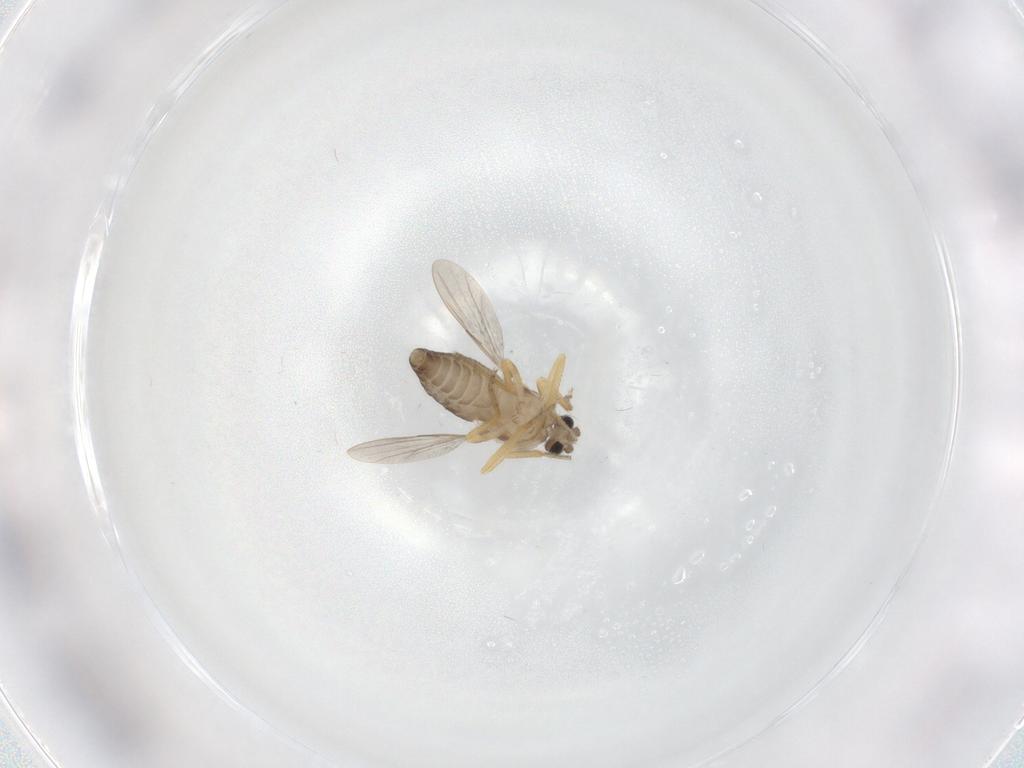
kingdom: Animalia
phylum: Arthropoda
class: Insecta
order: Diptera
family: Ceratopogonidae
